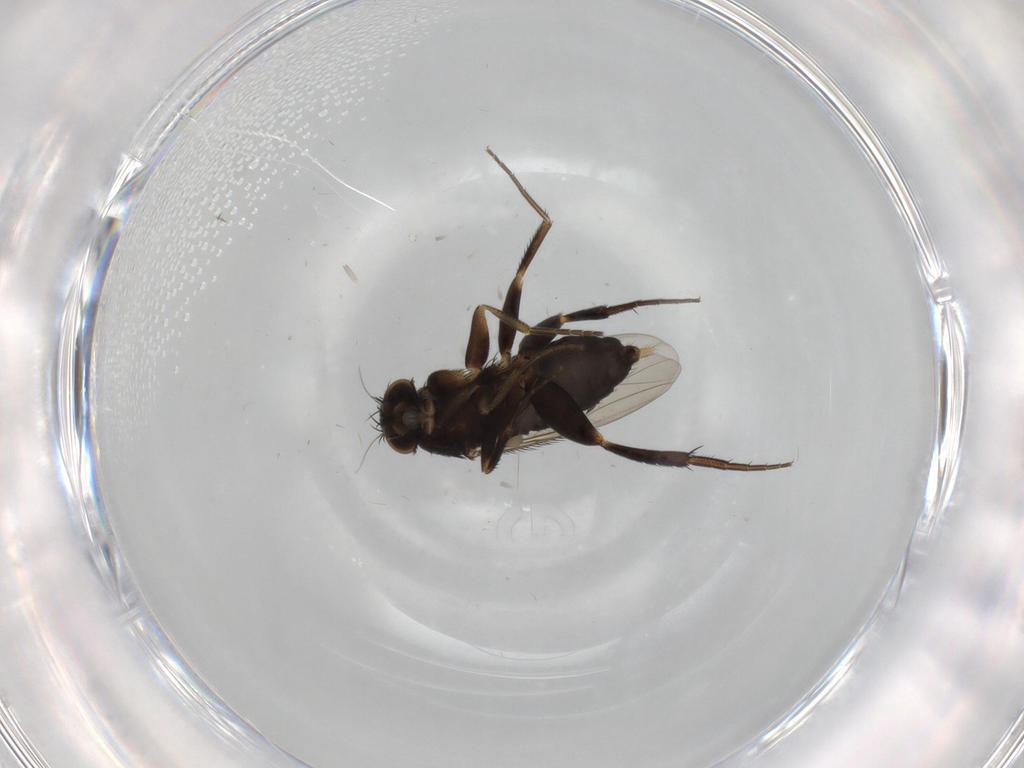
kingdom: Animalia
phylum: Arthropoda
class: Insecta
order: Diptera
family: Phoridae
